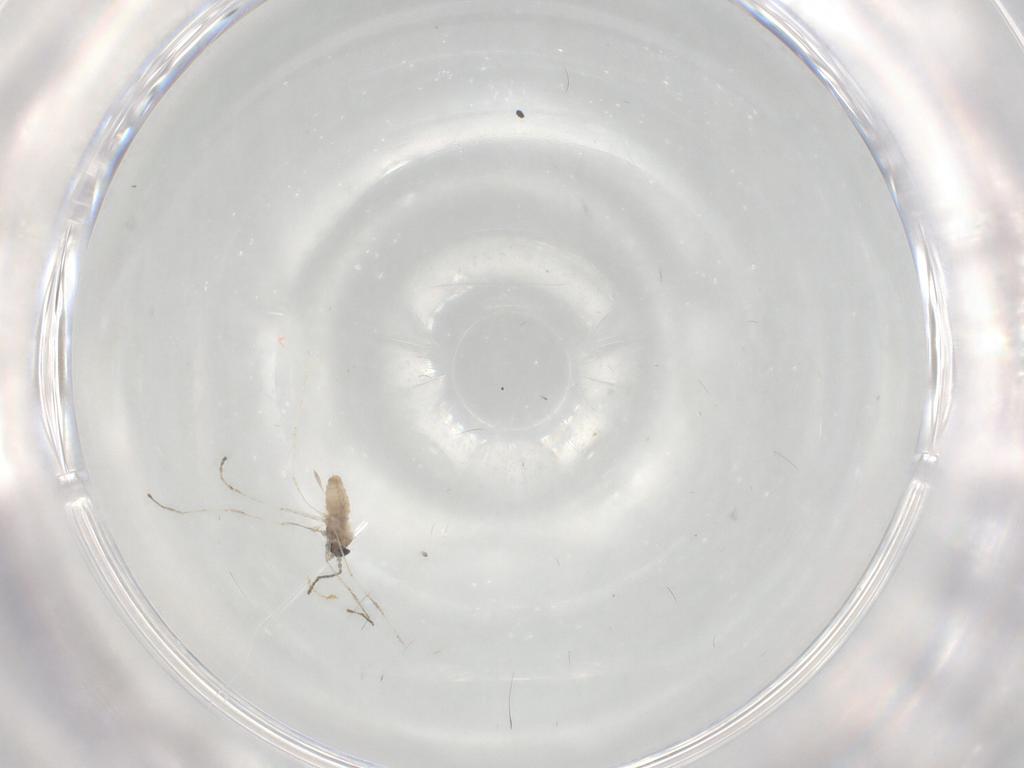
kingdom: Animalia
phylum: Arthropoda
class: Insecta
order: Diptera
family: Cecidomyiidae
